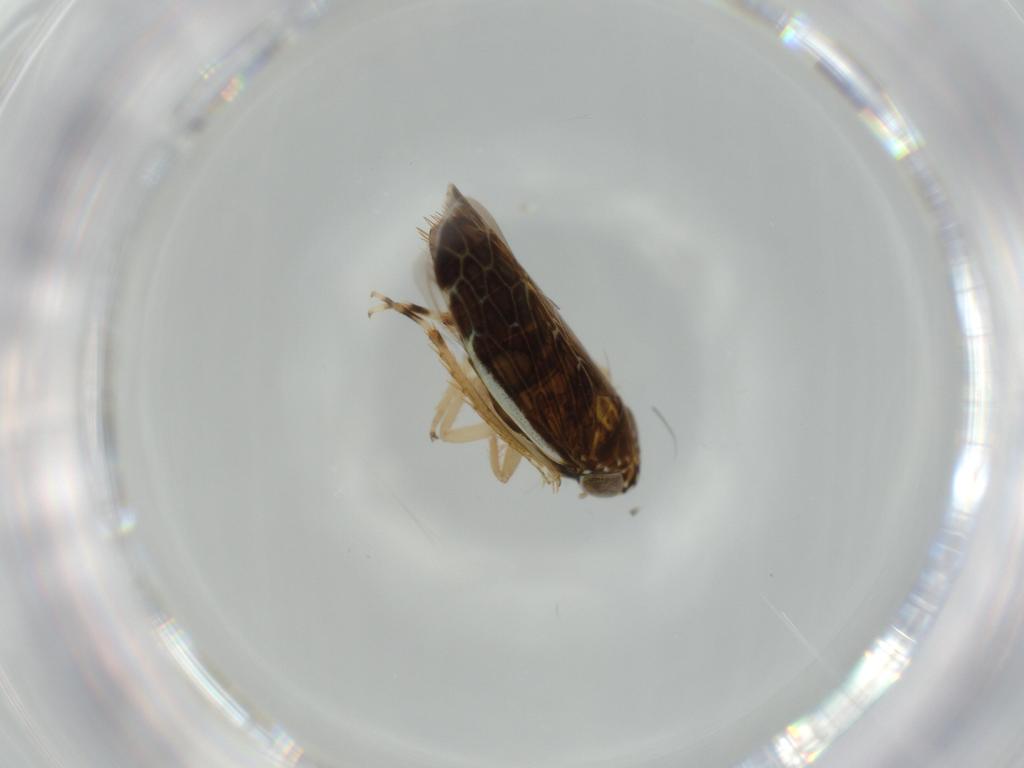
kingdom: Animalia
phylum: Arthropoda
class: Insecta
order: Hemiptera
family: Cicadellidae
